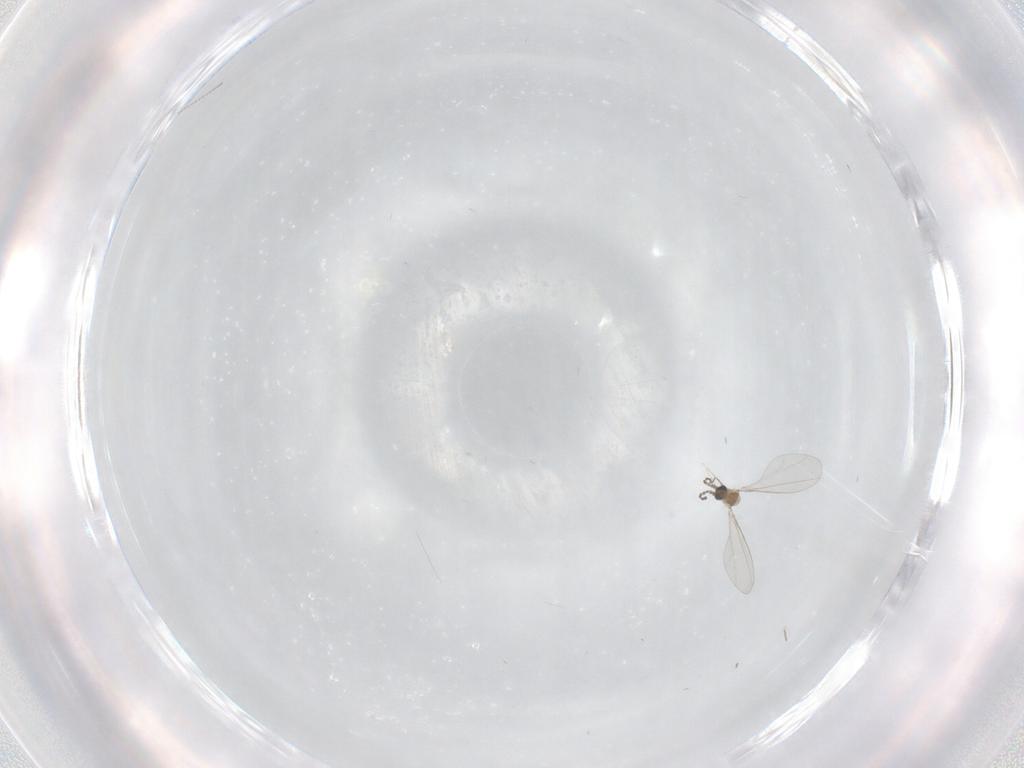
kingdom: Animalia
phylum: Arthropoda
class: Insecta
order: Diptera
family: Cecidomyiidae
